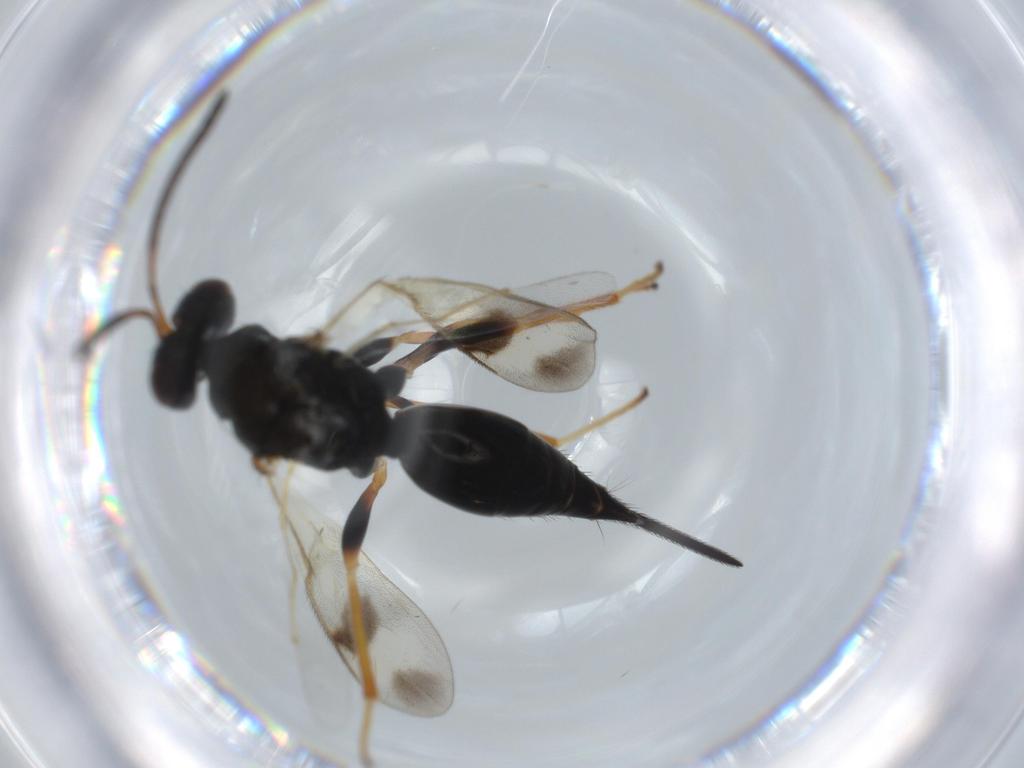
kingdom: Animalia
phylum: Arthropoda
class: Insecta
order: Hymenoptera
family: Diparidae
